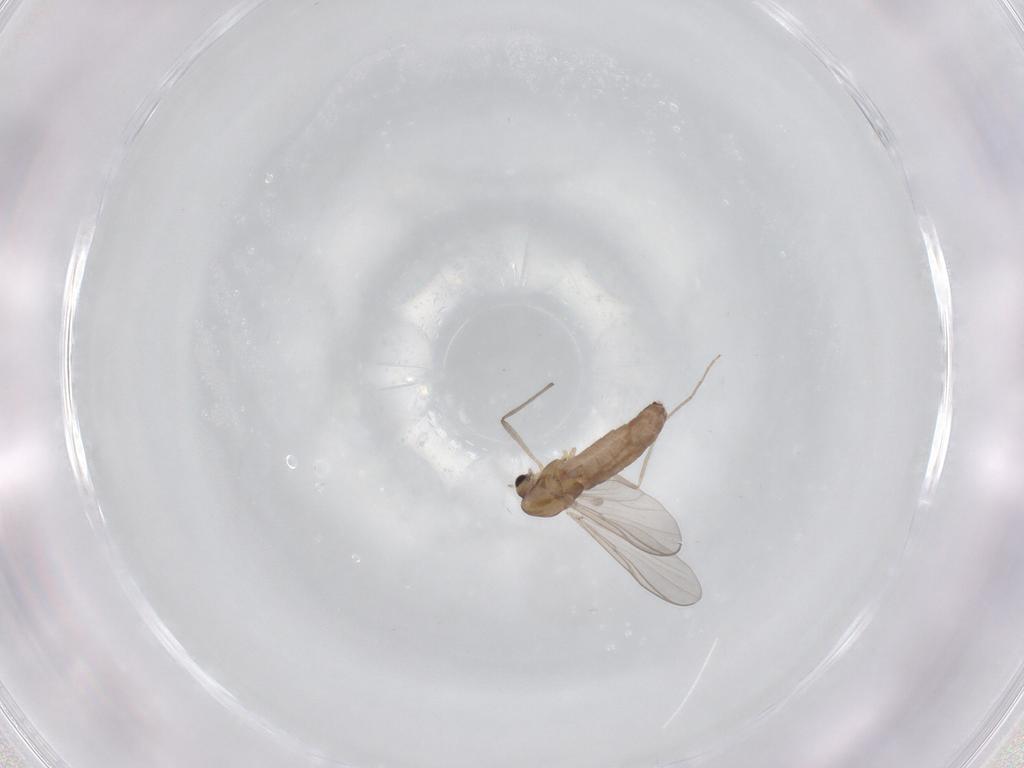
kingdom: Animalia
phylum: Arthropoda
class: Insecta
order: Diptera
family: Chironomidae
